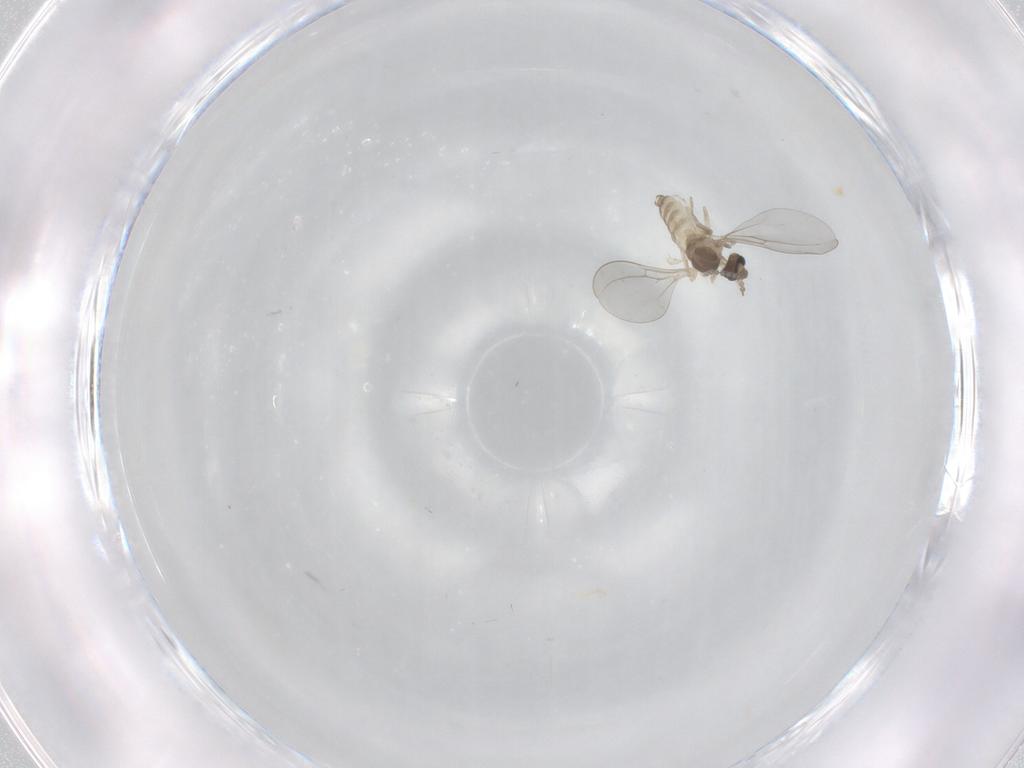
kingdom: Animalia
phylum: Arthropoda
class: Insecta
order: Diptera
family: Cecidomyiidae
